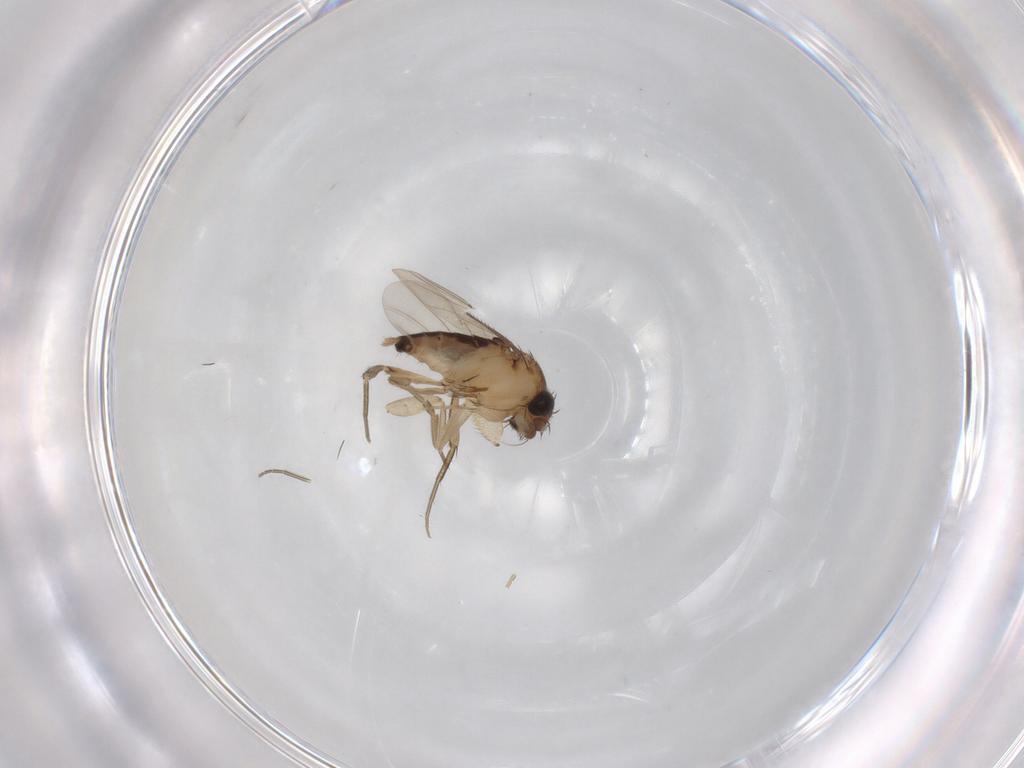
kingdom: Animalia
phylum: Arthropoda
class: Insecta
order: Diptera
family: Phoridae
